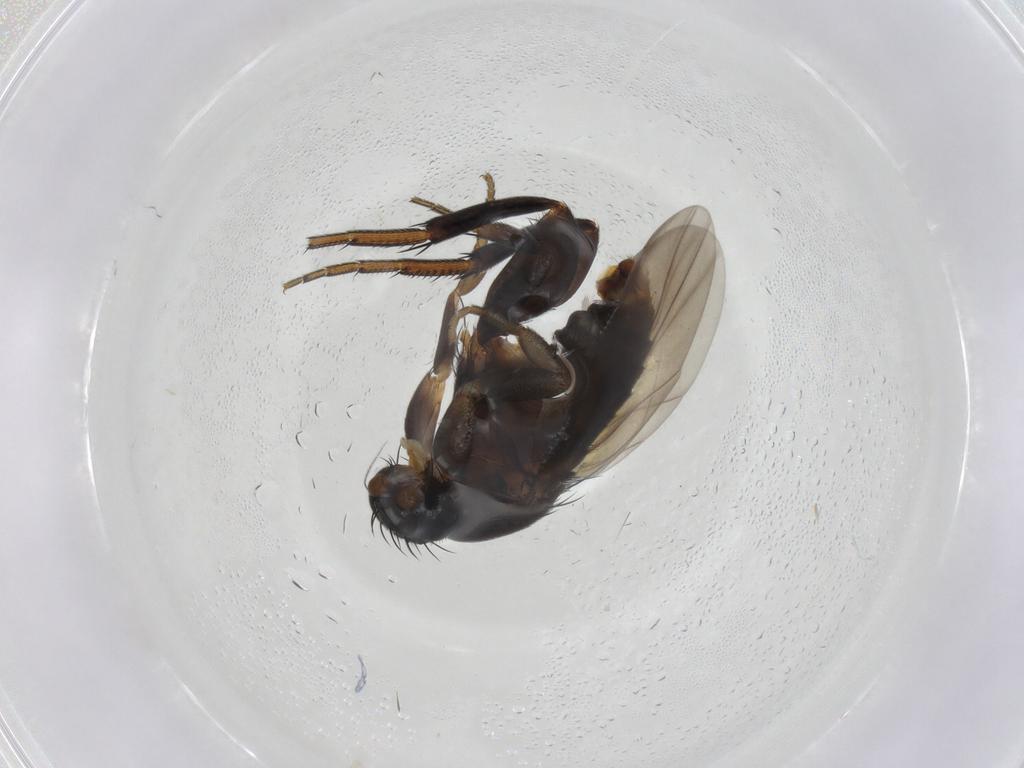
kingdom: Animalia
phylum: Arthropoda
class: Insecta
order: Diptera
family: Phoridae
